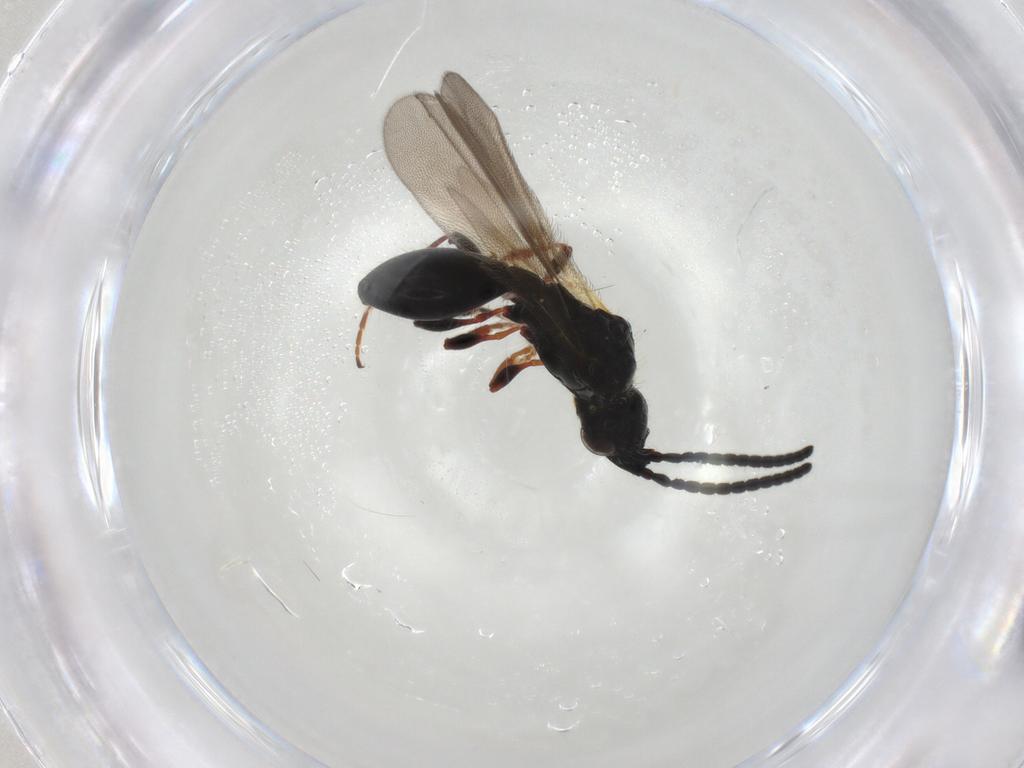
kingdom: Animalia
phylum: Arthropoda
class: Insecta
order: Hymenoptera
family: Diapriidae
